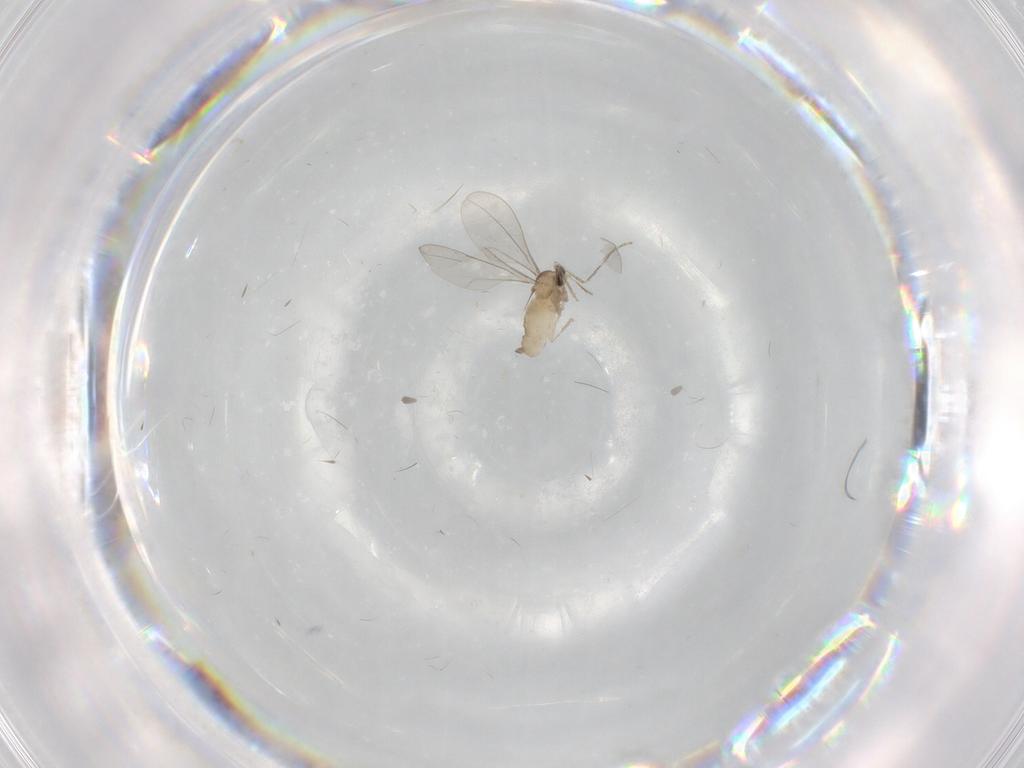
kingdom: Animalia
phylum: Arthropoda
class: Insecta
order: Diptera
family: Cecidomyiidae
